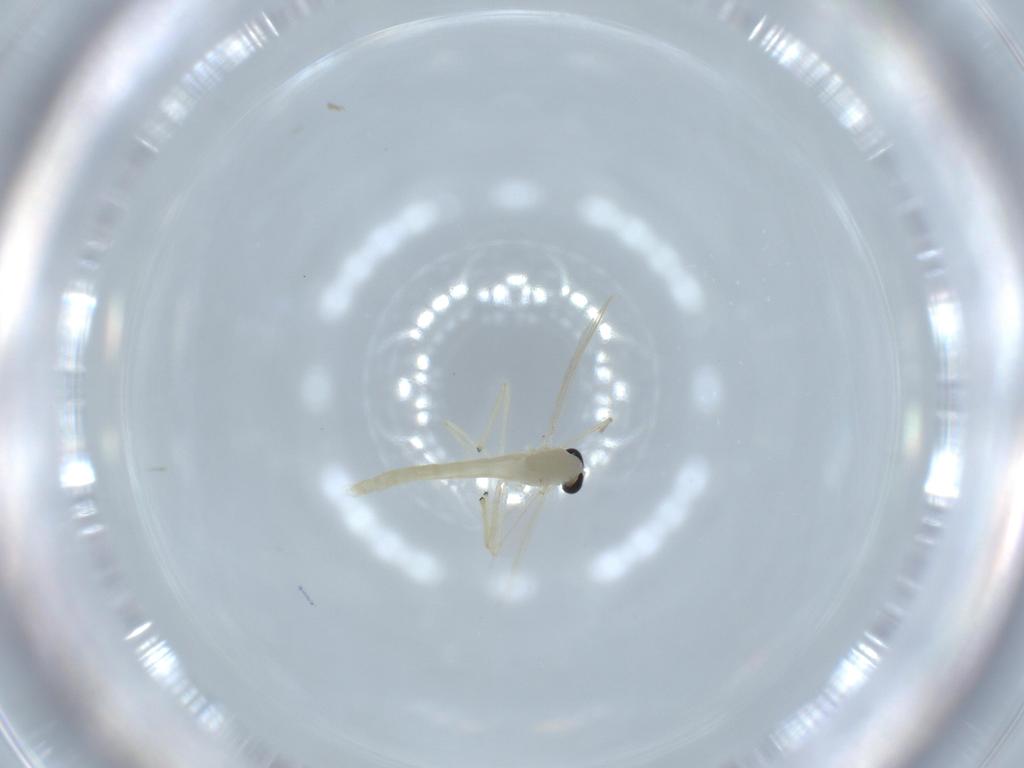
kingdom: Animalia
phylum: Arthropoda
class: Insecta
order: Diptera
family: Chironomidae
